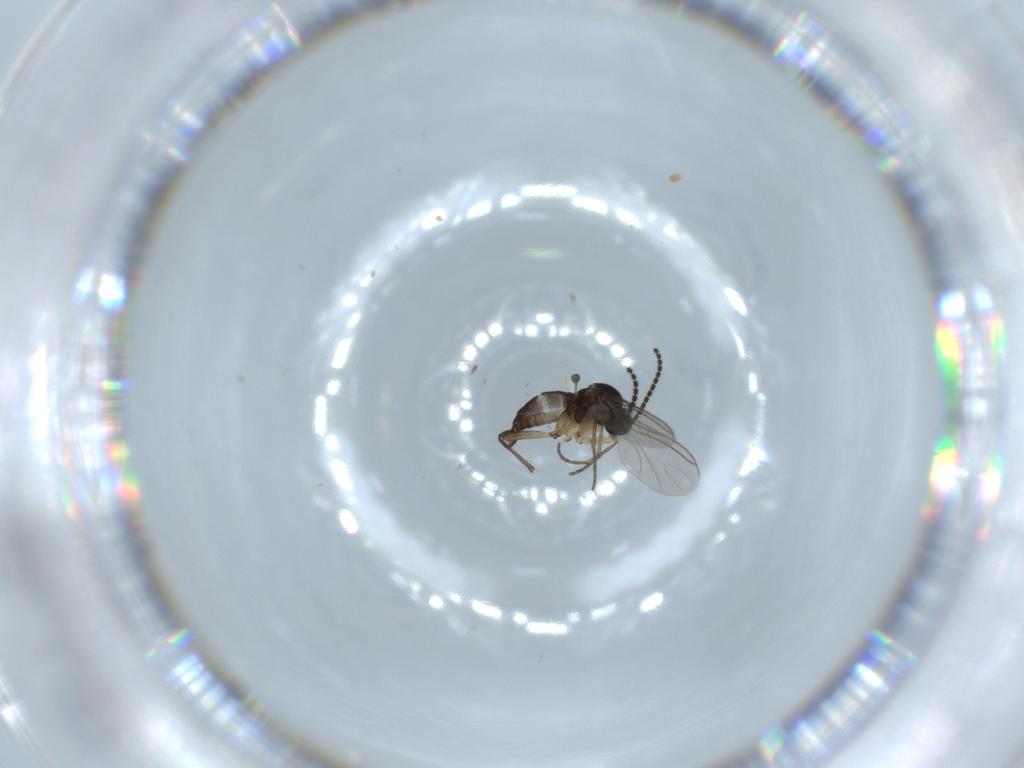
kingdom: Animalia
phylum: Arthropoda
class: Insecta
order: Diptera
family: Sciaridae
